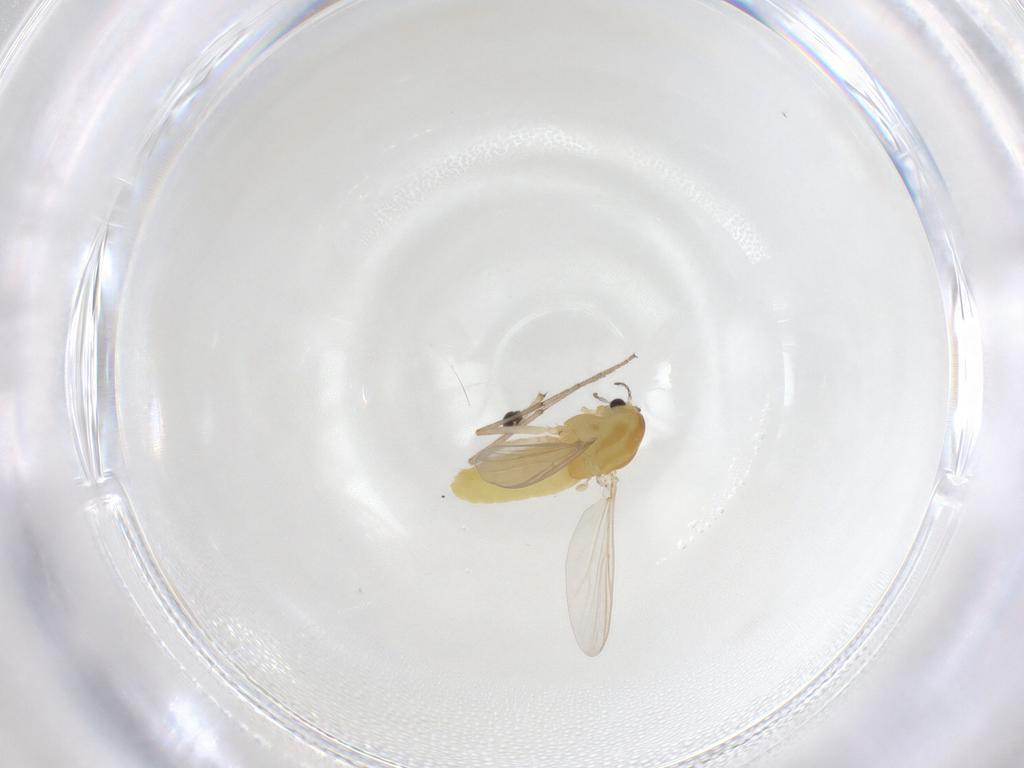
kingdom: Animalia
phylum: Arthropoda
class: Insecta
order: Diptera
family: Chironomidae
